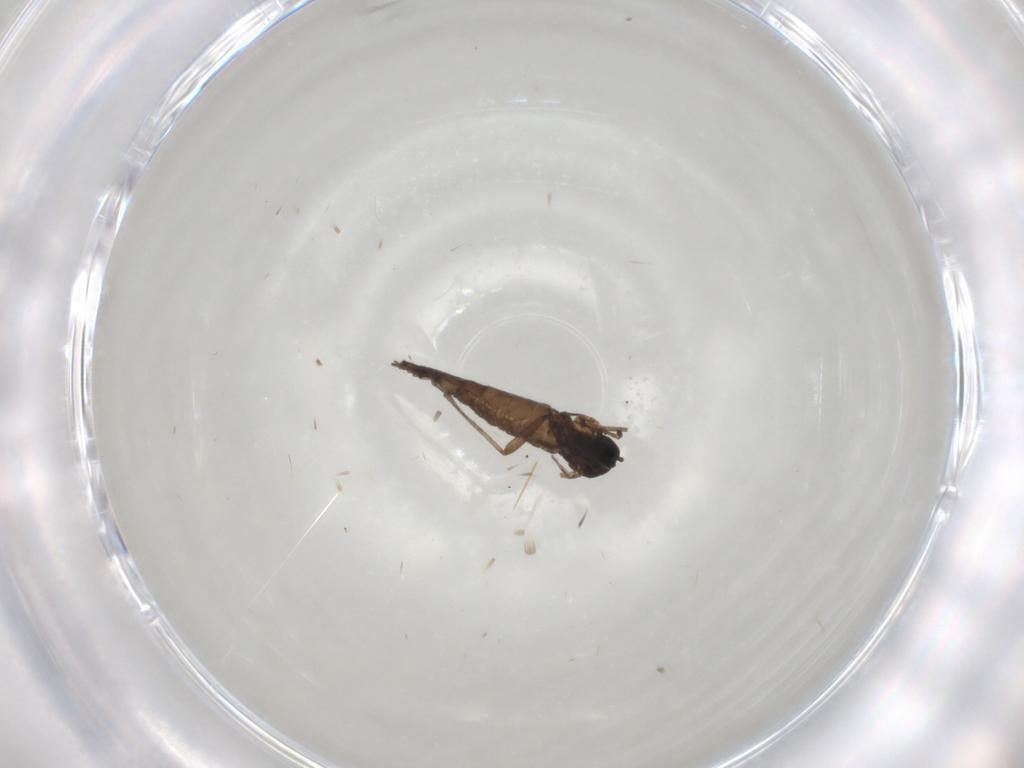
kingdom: Animalia
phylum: Arthropoda
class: Insecta
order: Diptera
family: Sciaridae
